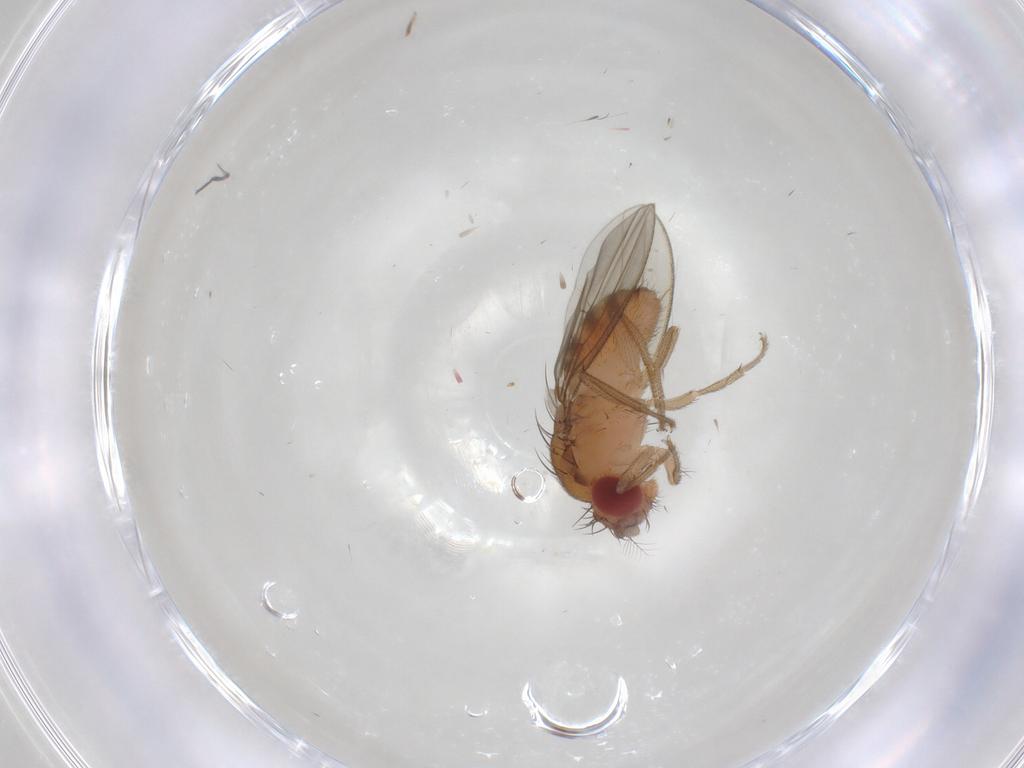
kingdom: Animalia
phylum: Arthropoda
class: Insecta
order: Diptera
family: Drosophilidae
